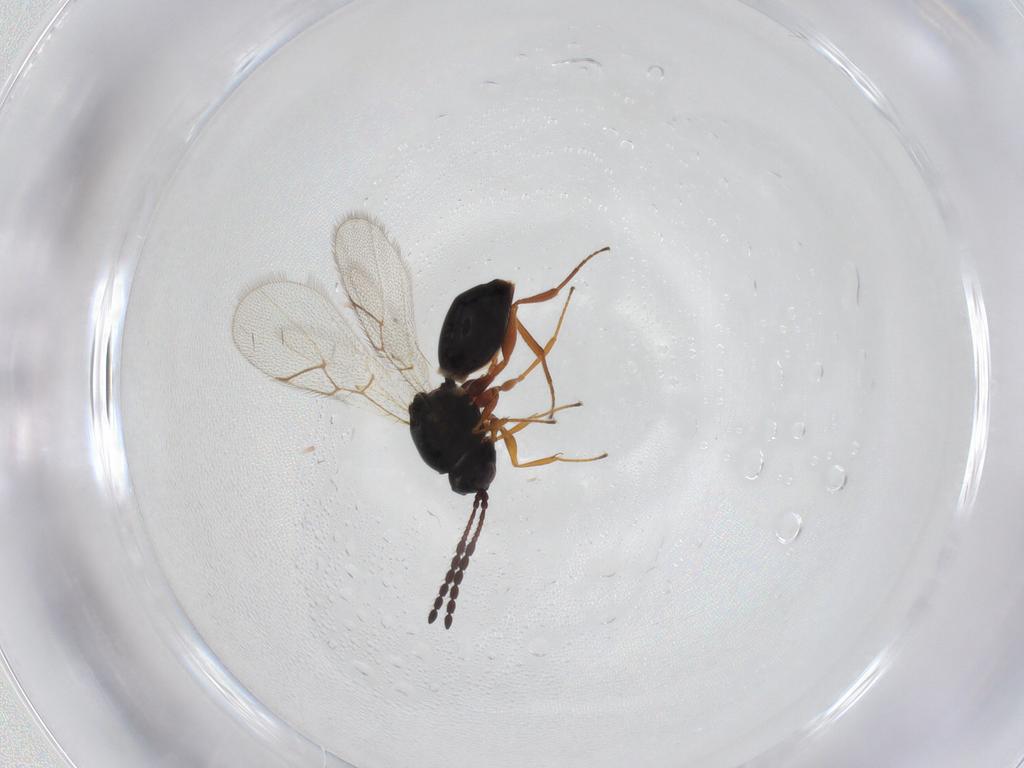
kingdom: Animalia
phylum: Arthropoda
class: Insecta
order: Hymenoptera
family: Figitidae
